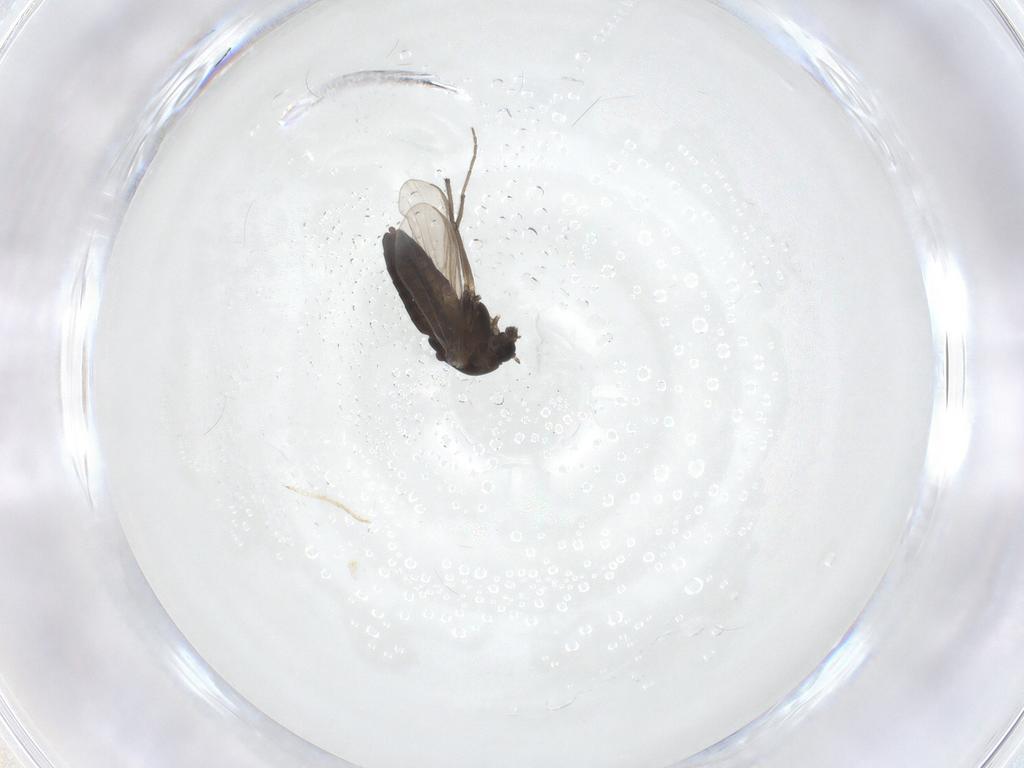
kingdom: Animalia
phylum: Arthropoda
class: Insecta
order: Diptera
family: Chironomidae
